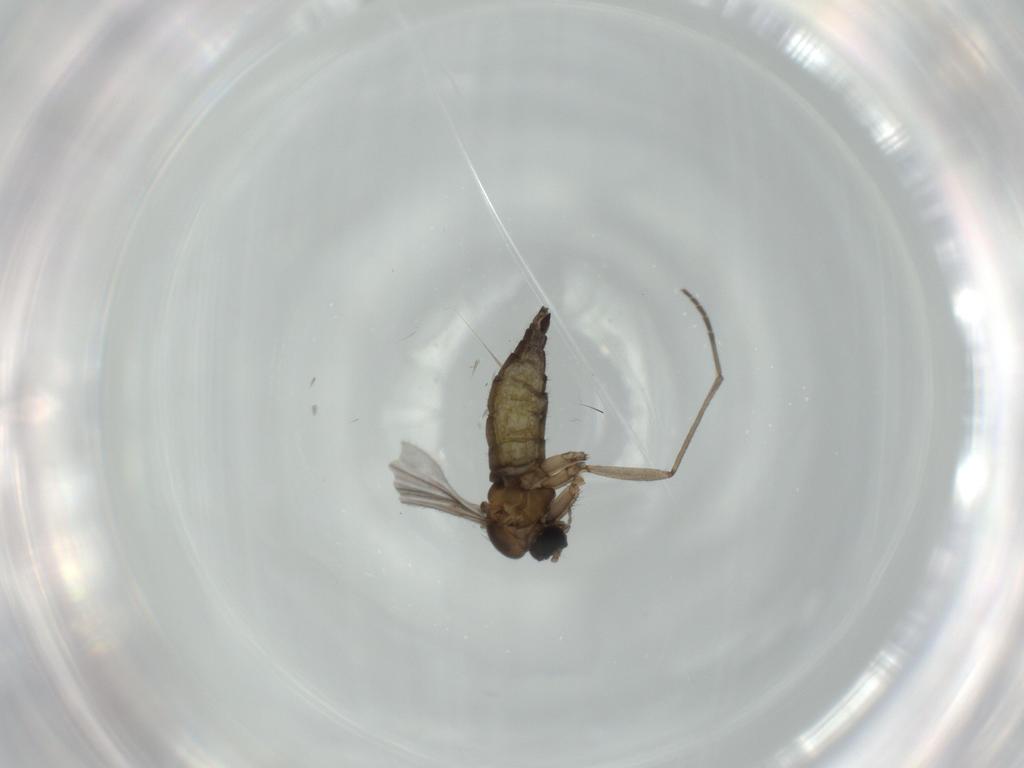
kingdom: Animalia
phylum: Arthropoda
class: Insecta
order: Diptera
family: Sciaridae
